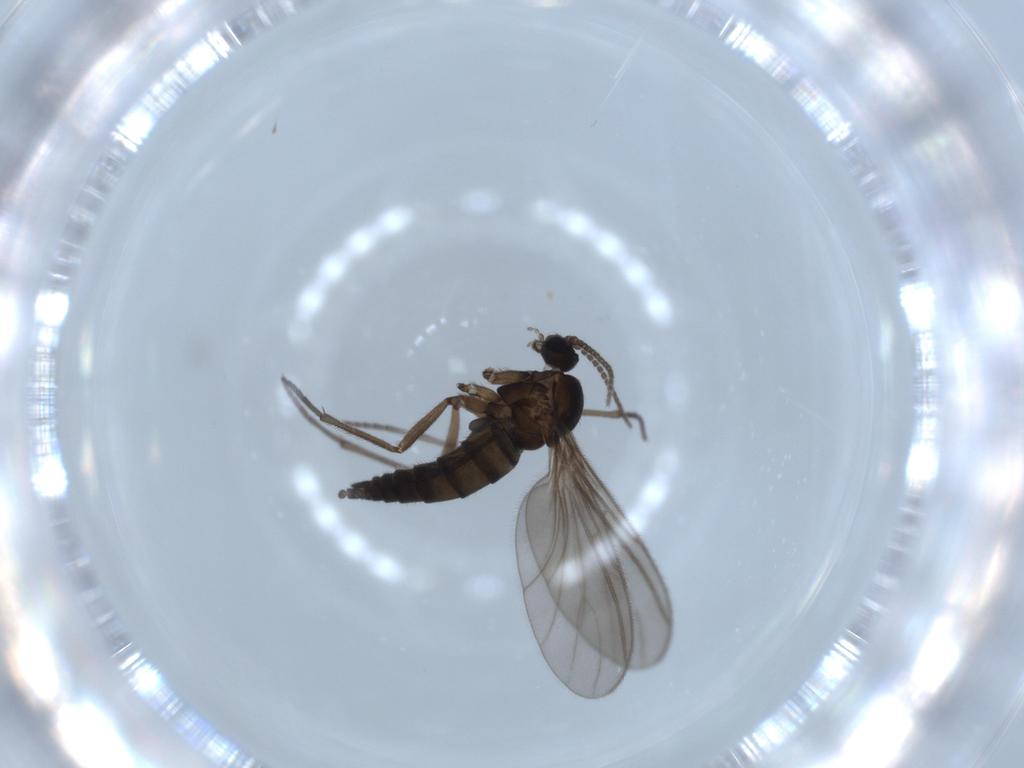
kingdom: Animalia
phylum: Arthropoda
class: Insecta
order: Diptera
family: Sciaridae
